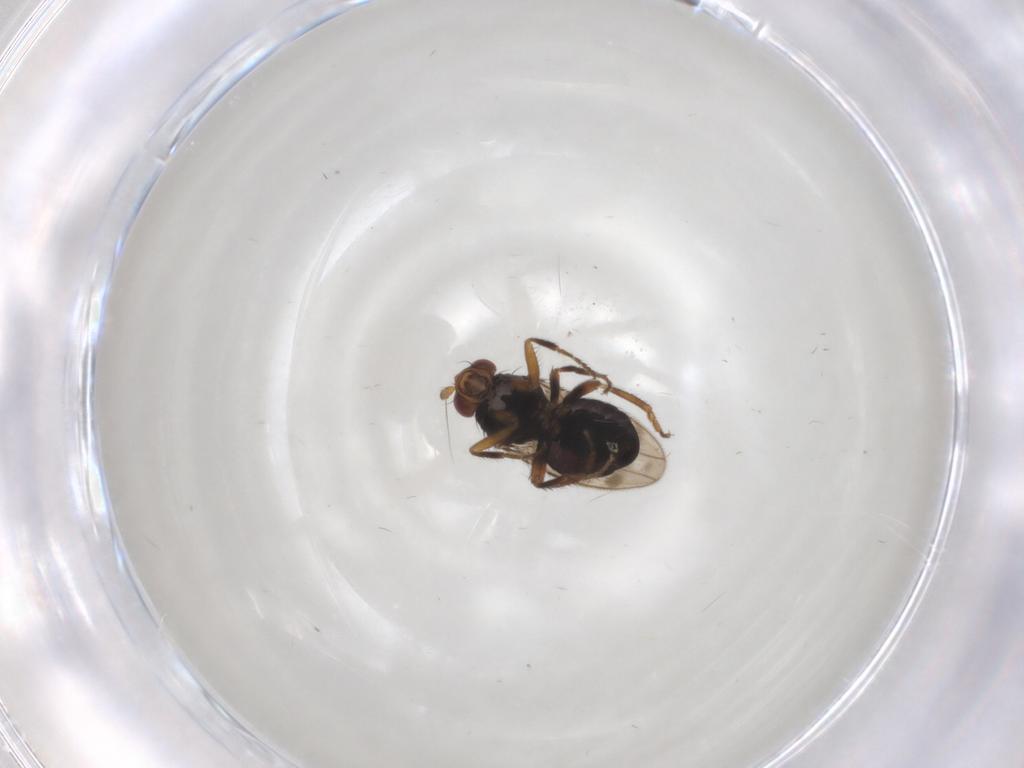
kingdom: Animalia
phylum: Arthropoda
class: Insecta
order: Diptera
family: Sphaeroceridae
